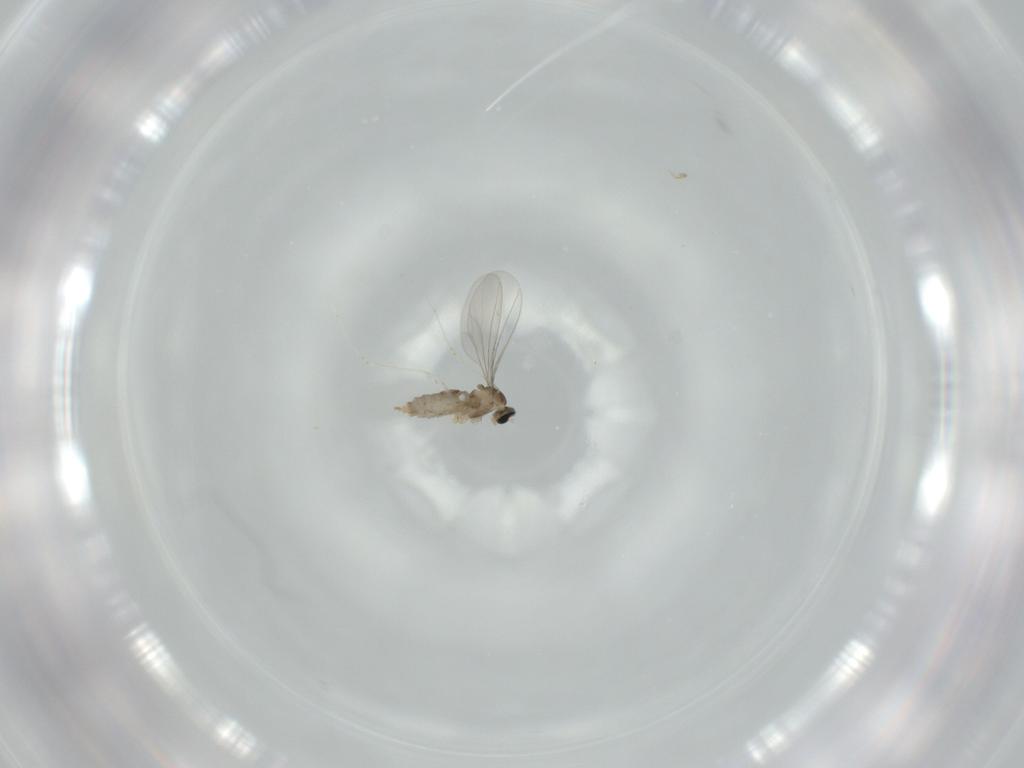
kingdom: Animalia
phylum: Arthropoda
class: Insecta
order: Diptera
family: Cecidomyiidae
